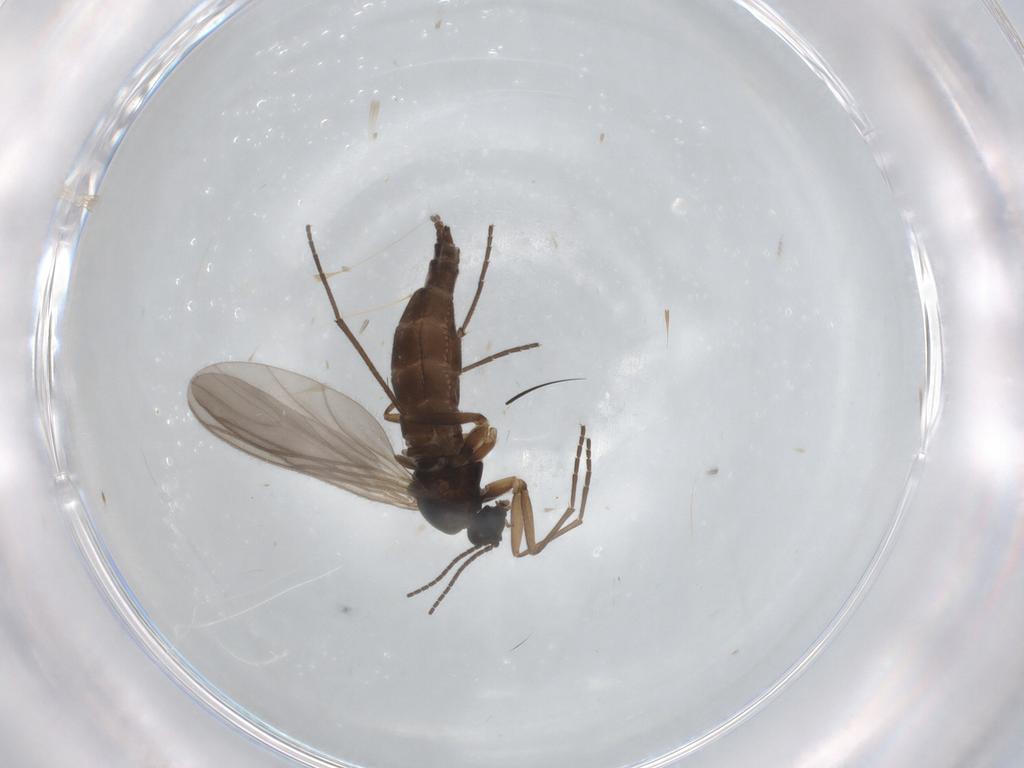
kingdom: Animalia
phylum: Arthropoda
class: Insecta
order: Diptera
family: Sciaridae
